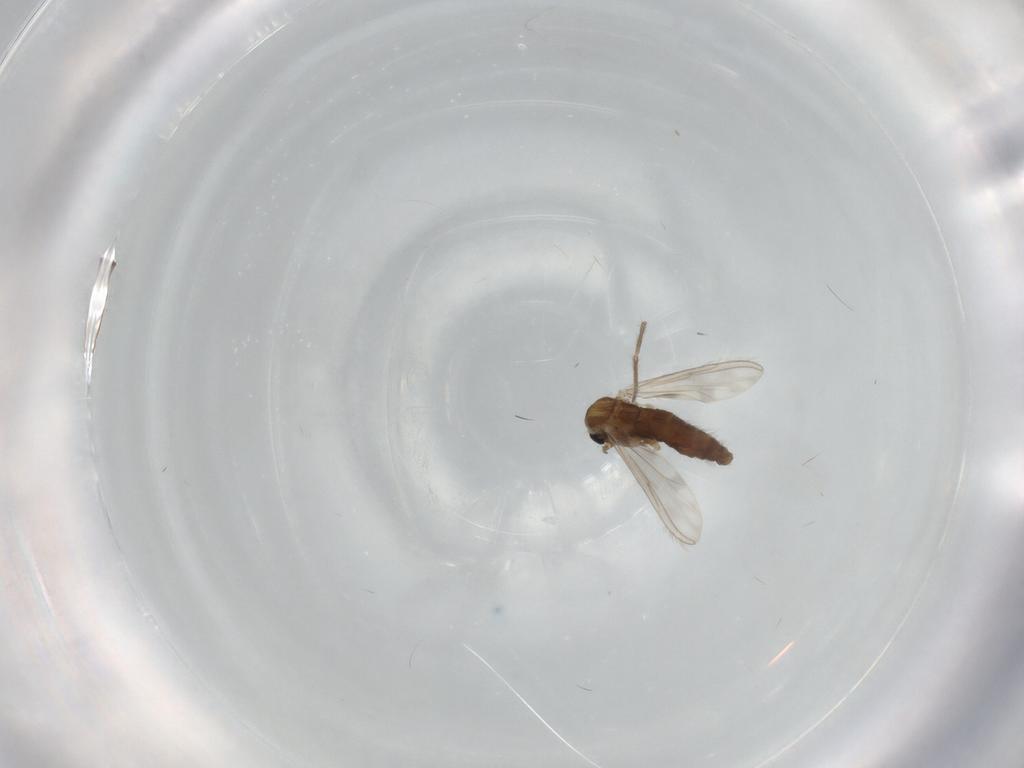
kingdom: Animalia
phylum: Arthropoda
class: Insecta
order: Diptera
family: Chironomidae
